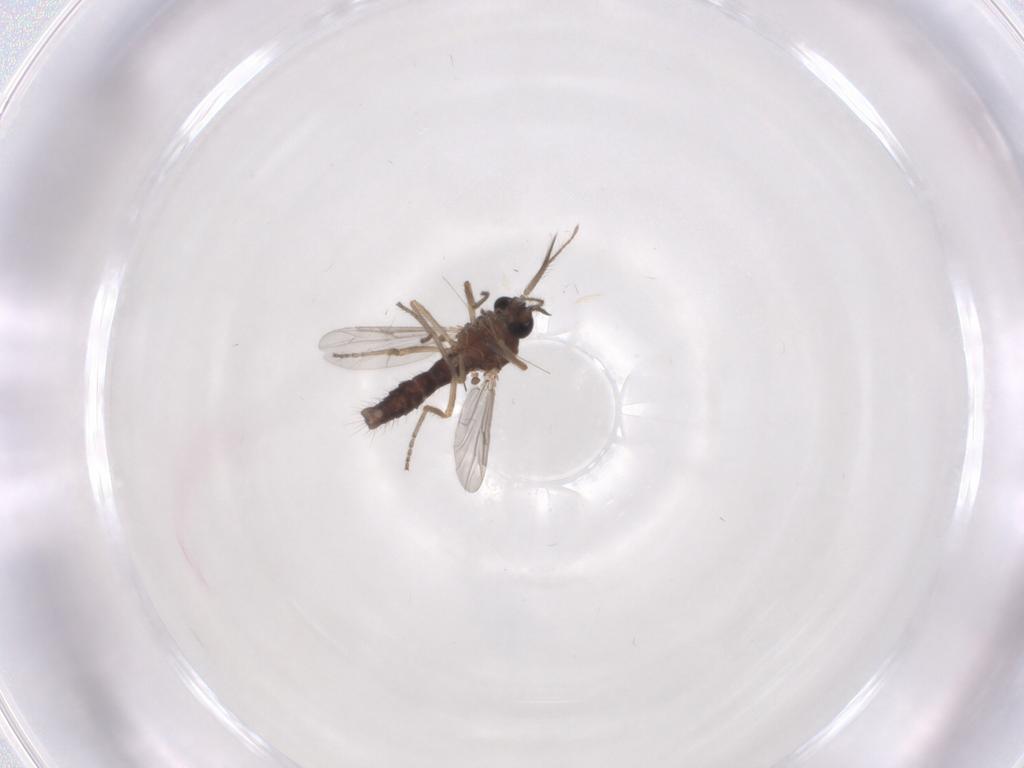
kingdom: Animalia
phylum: Arthropoda
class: Insecta
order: Diptera
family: Ceratopogonidae
